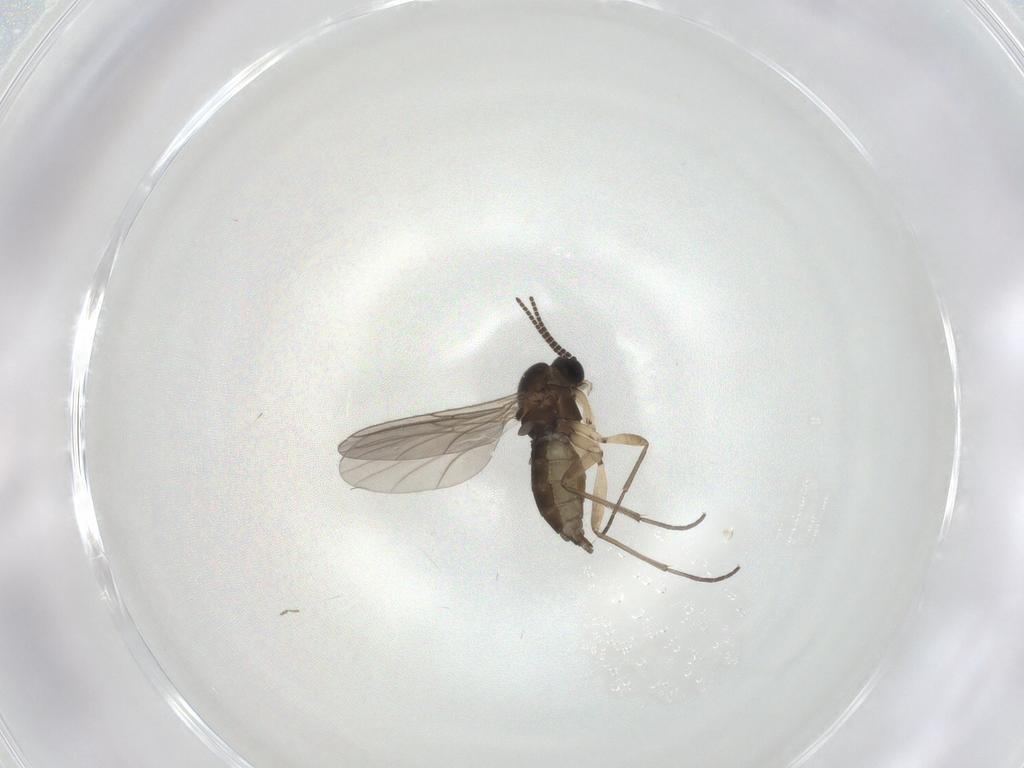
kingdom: Animalia
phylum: Arthropoda
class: Insecta
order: Diptera
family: Sciaridae
